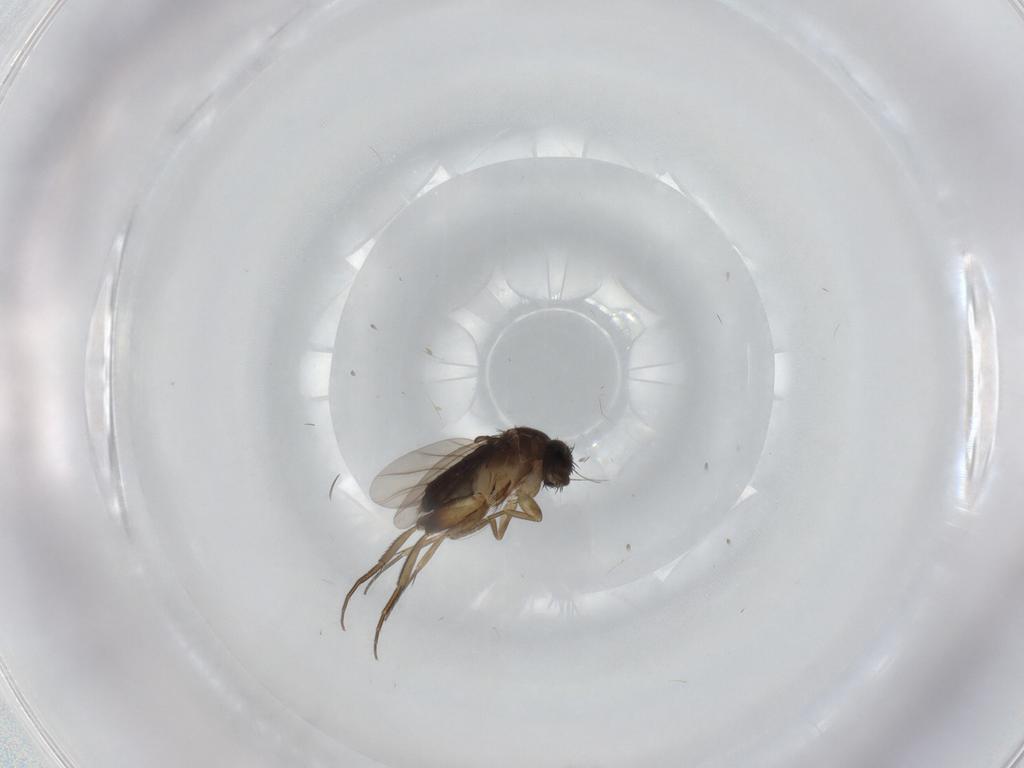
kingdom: Animalia
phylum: Arthropoda
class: Insecta
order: Diptera
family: Phoridae
